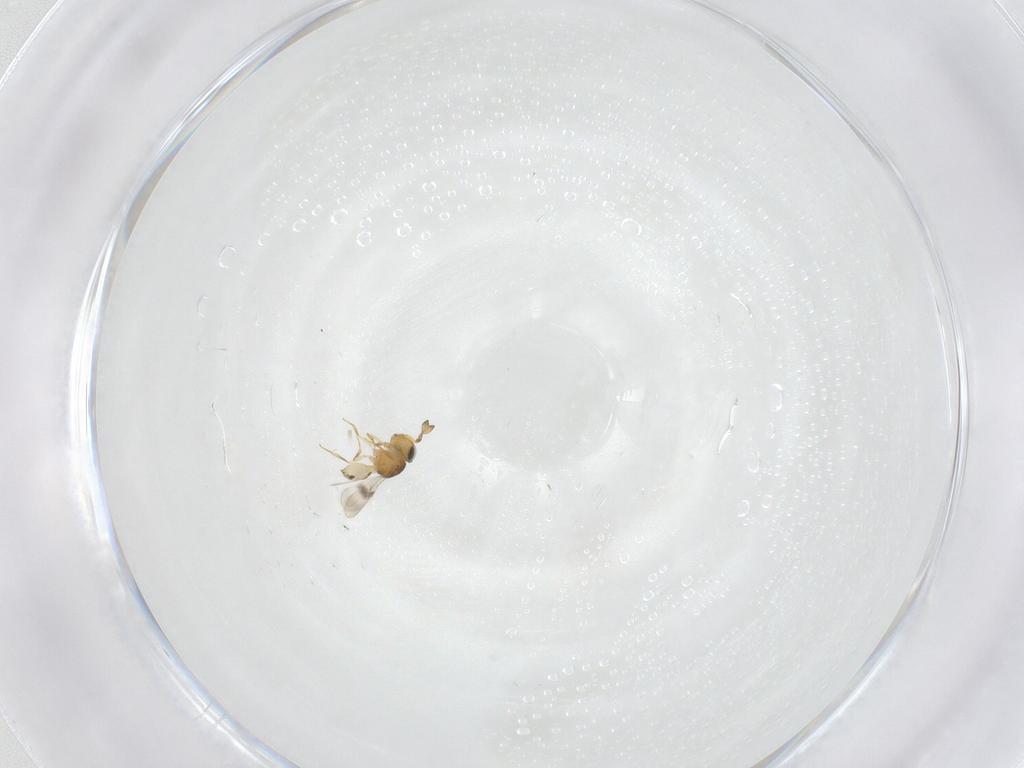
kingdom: Animalia
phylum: Arthropoda
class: Insecta
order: Hymenoptera
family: Scelionidae
